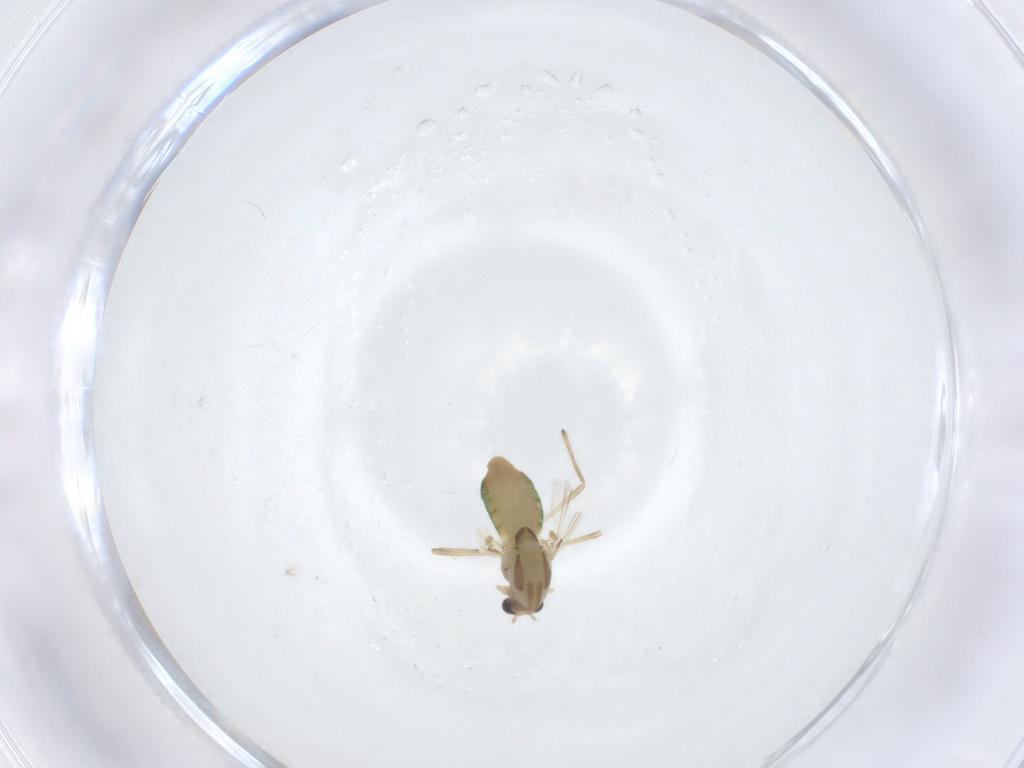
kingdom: Animalia
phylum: Arthropoda
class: Insecta
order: Diptera
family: Chironomidae
